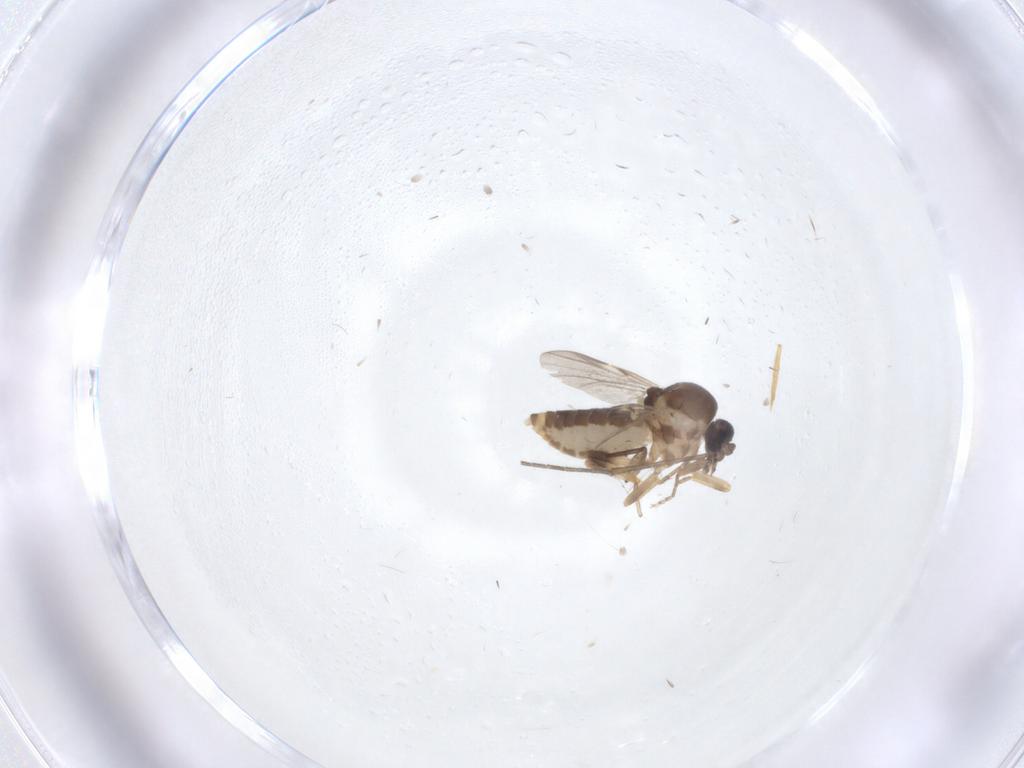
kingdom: Animalia
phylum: Arthropoda
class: Insecta
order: Diptera
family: Ceratopogonidae
